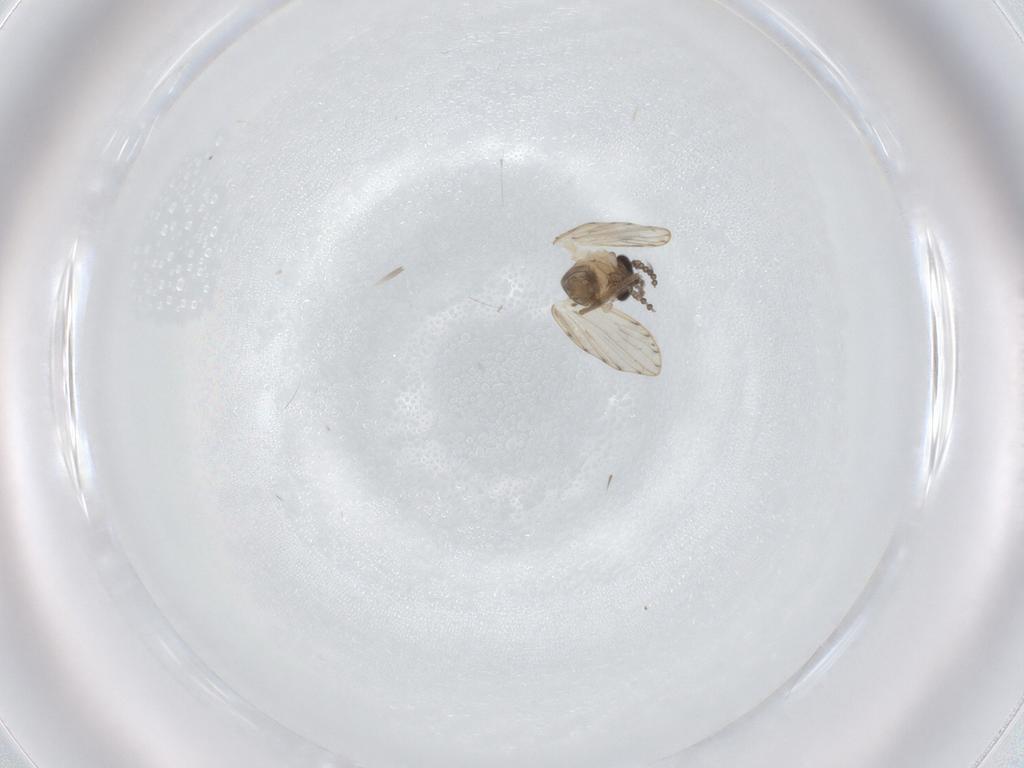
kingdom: Animalia
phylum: Arthropoda
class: Insecta
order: Diptera
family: Psychodidae
